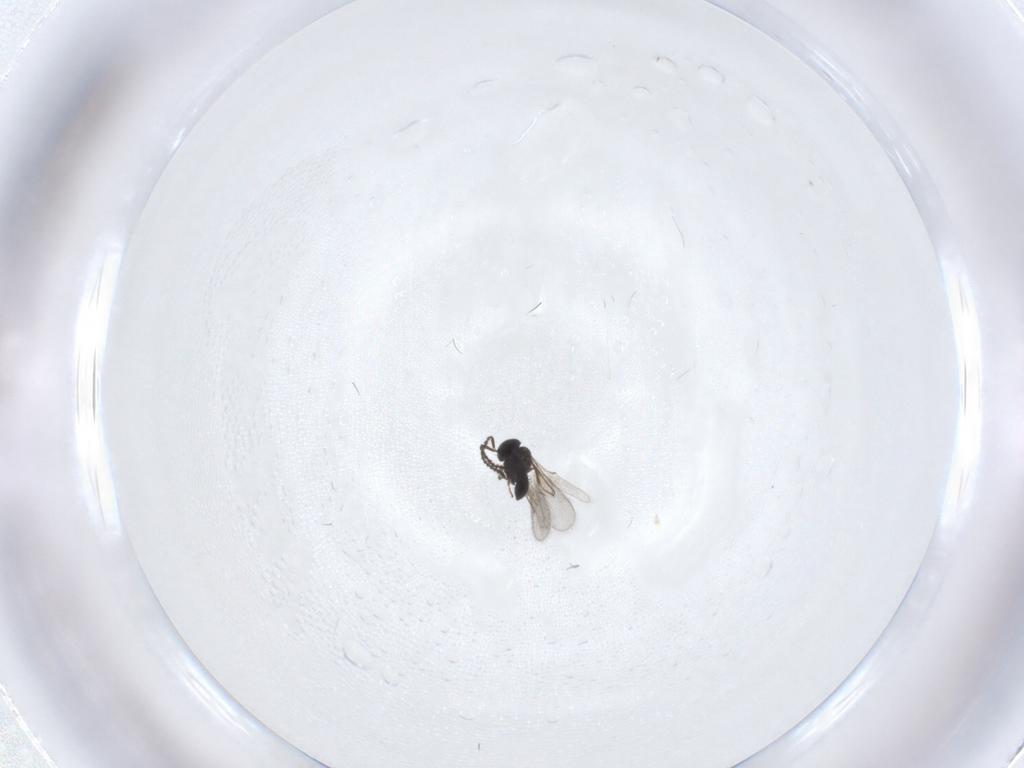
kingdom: Animalia
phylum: Arthropoda
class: Insecta
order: Hymenoptera
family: Scelionidae
